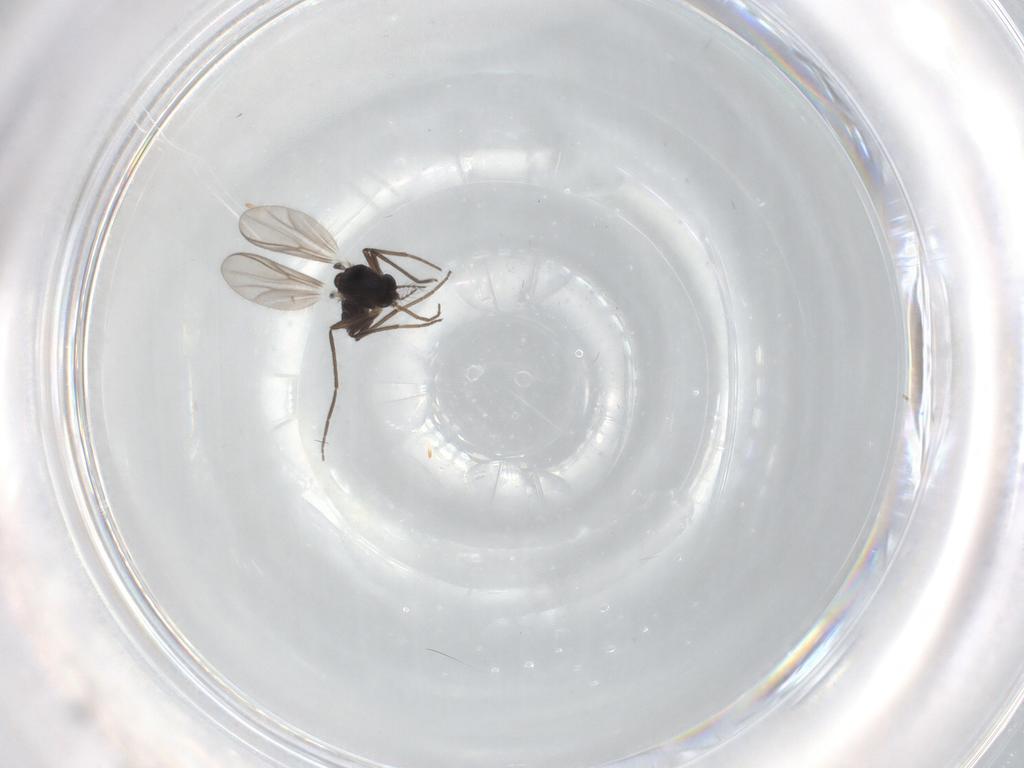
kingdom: Animalia
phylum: Arthropoda
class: Insecta
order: Diptera
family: Chironomidae
